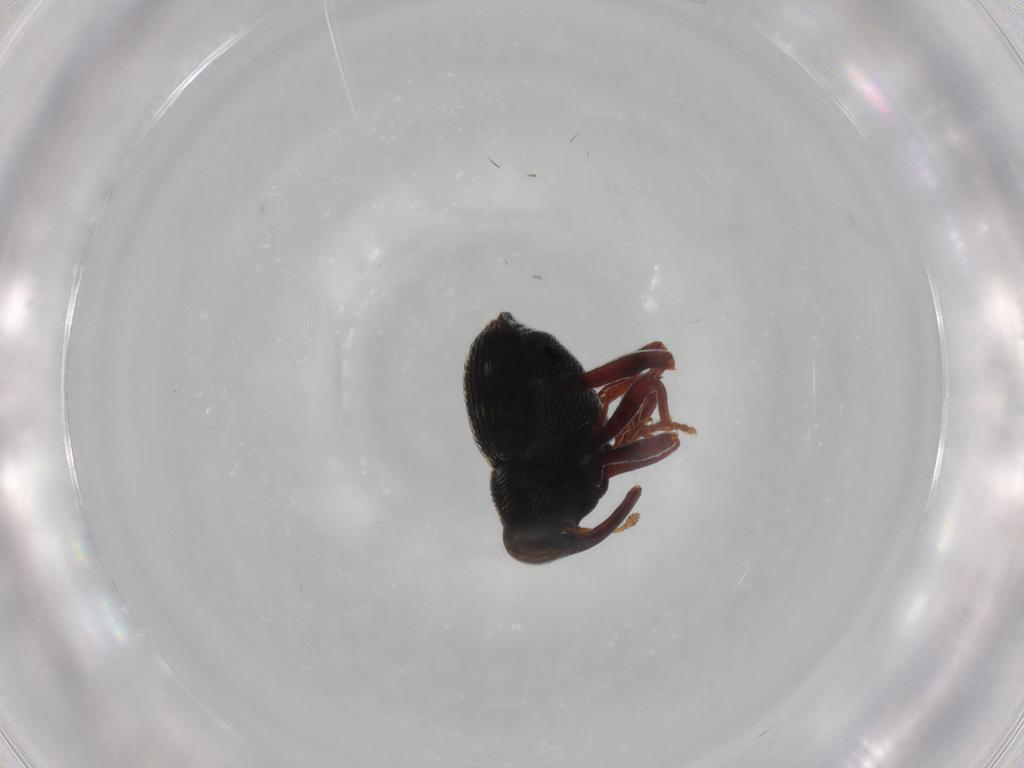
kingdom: Animalia
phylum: Arthropoda
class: Insecta
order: Coleoptera
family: Curculionidae
